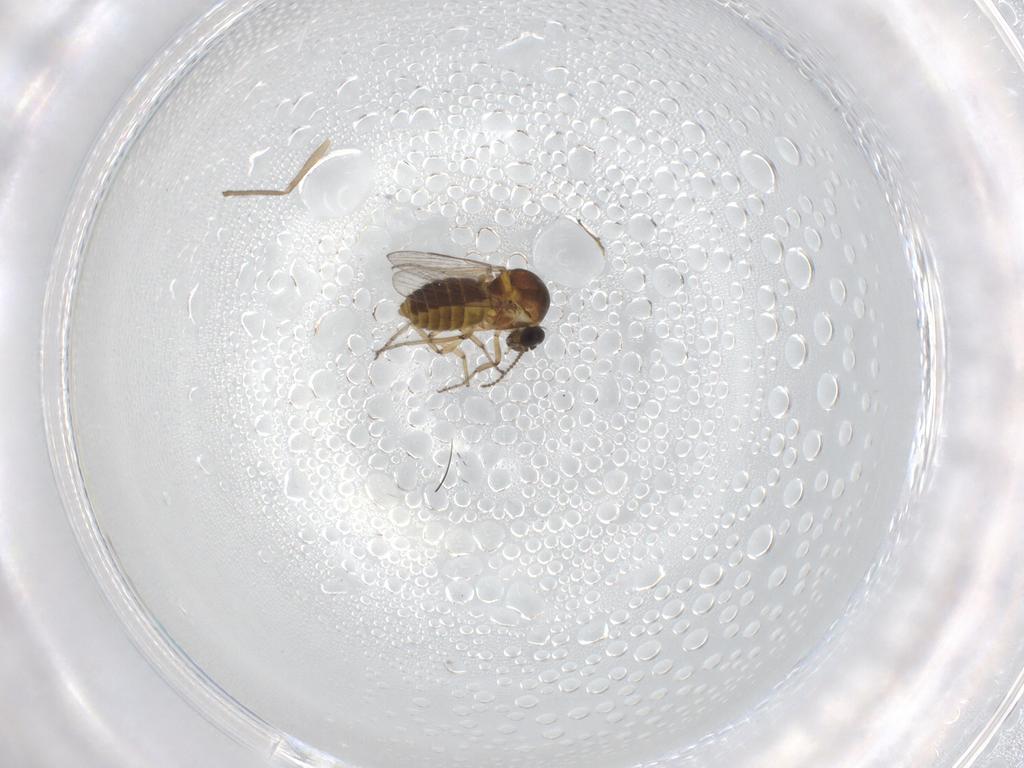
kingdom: Animalia
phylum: Arthropoda
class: Insecta
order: Diptera
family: Ceratopogonidae
